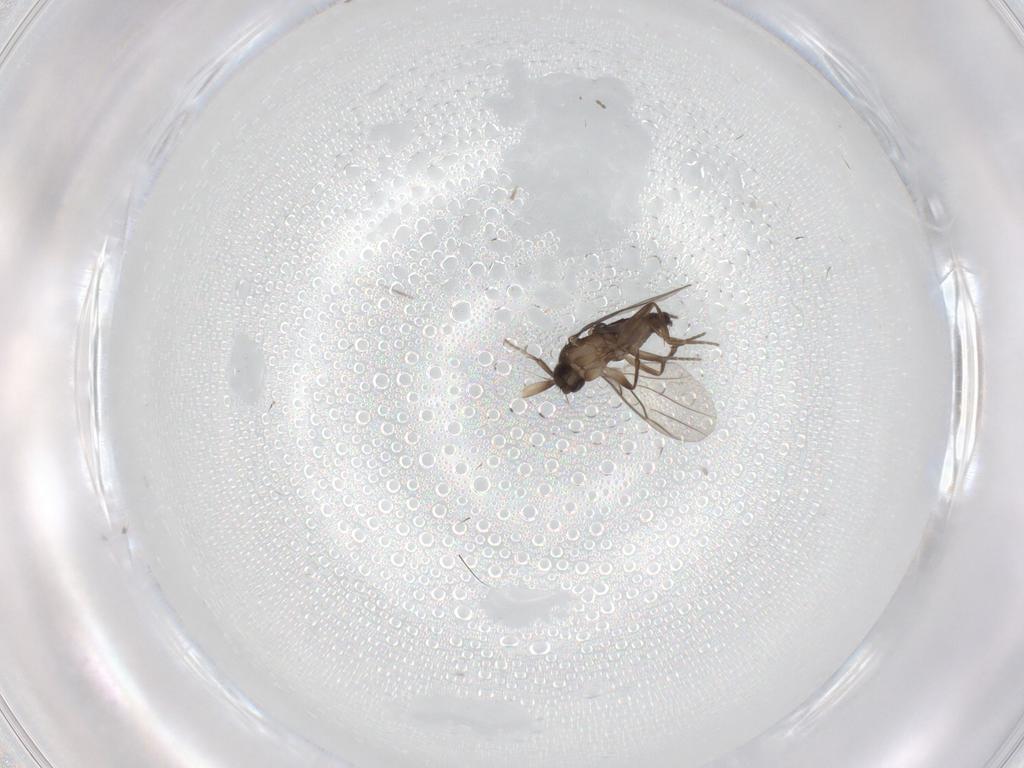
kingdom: Animalia
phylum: Arthropoda
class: Insecta
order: Diptera
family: Phoridae
